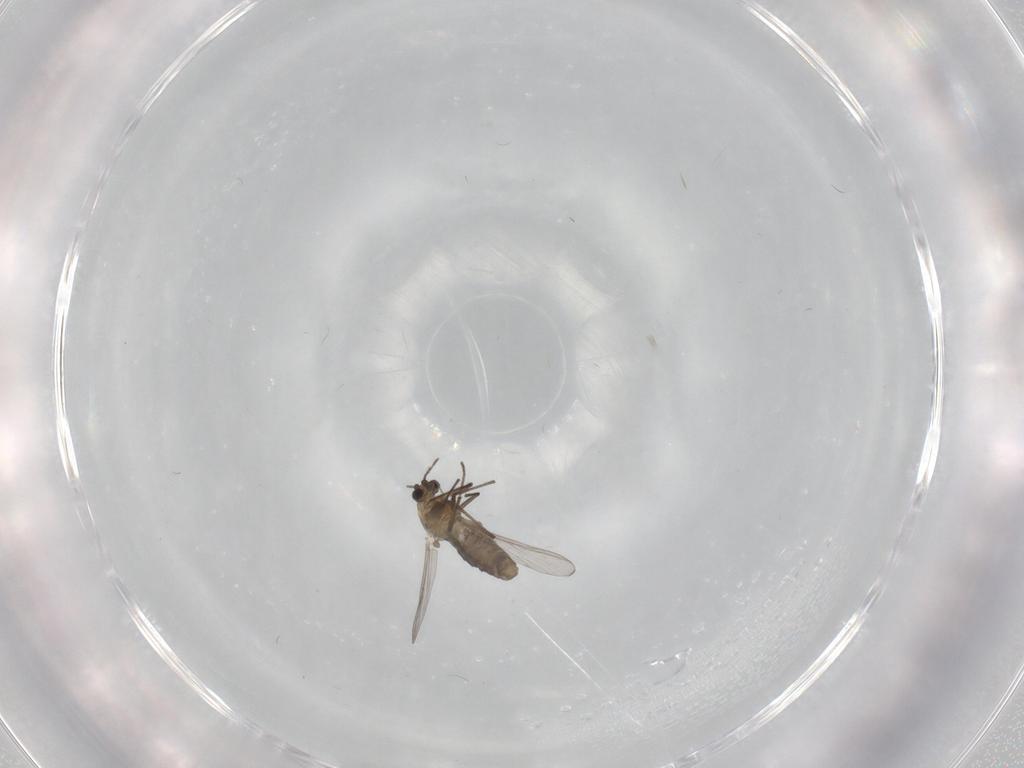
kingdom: Animalia
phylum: Arthropoda
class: Insecta
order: Diptera
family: Chironomidae
